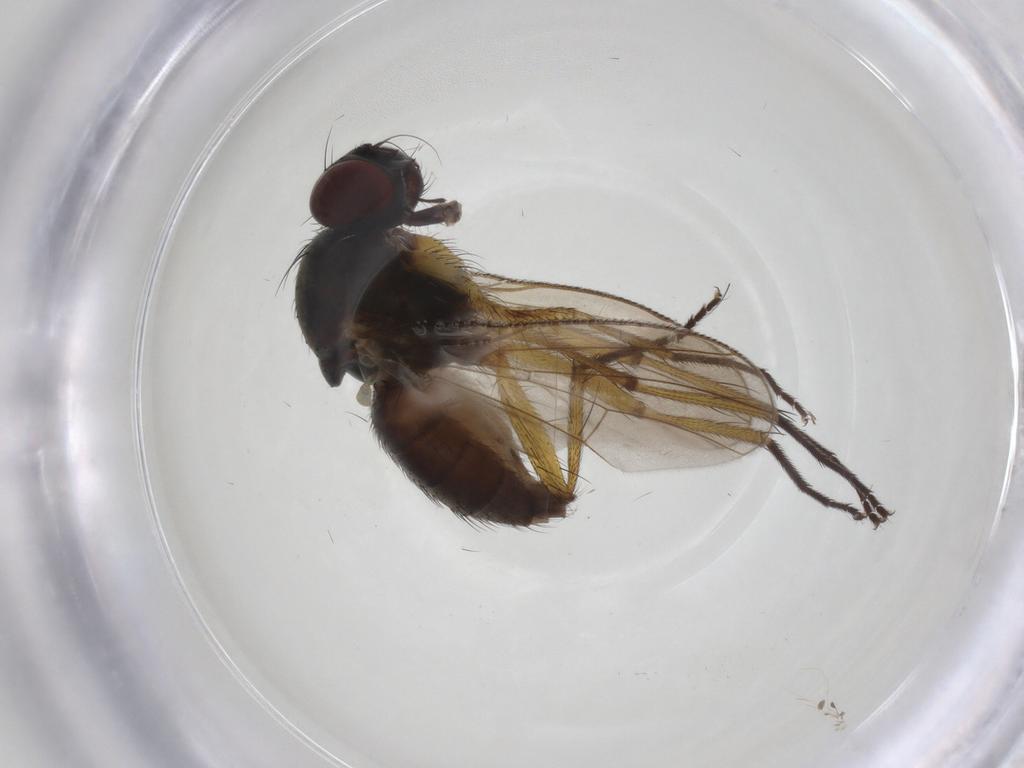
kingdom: Animalia
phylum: Arthropoda
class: Insecta
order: Diptera
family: Muscidae
